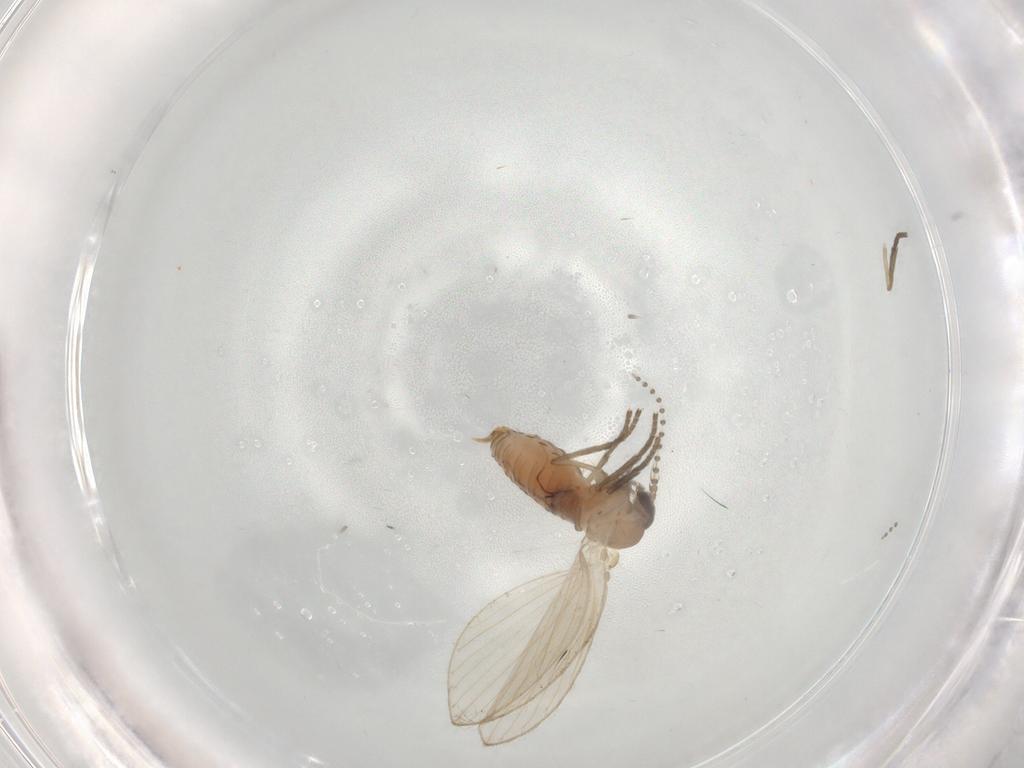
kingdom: Animalia
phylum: Arthropoda
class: Insecta
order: Diptera
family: Psychodidae
